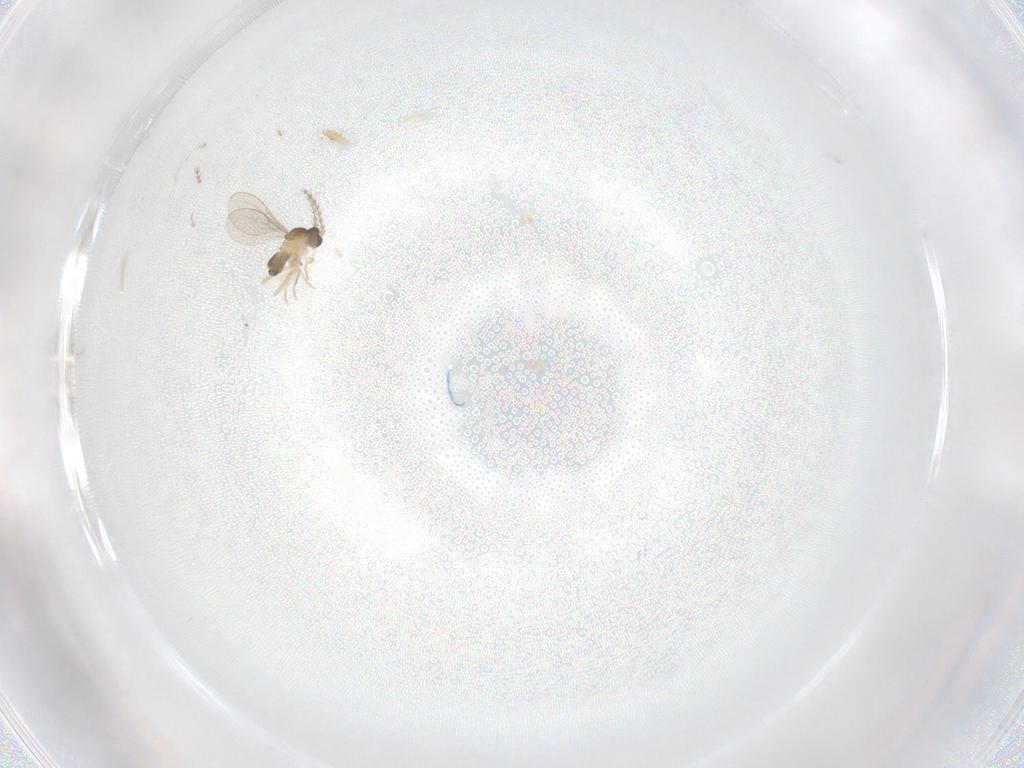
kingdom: Animalia
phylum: Arthropoda
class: Insecta
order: Diptera
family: Cecidomyiidae
